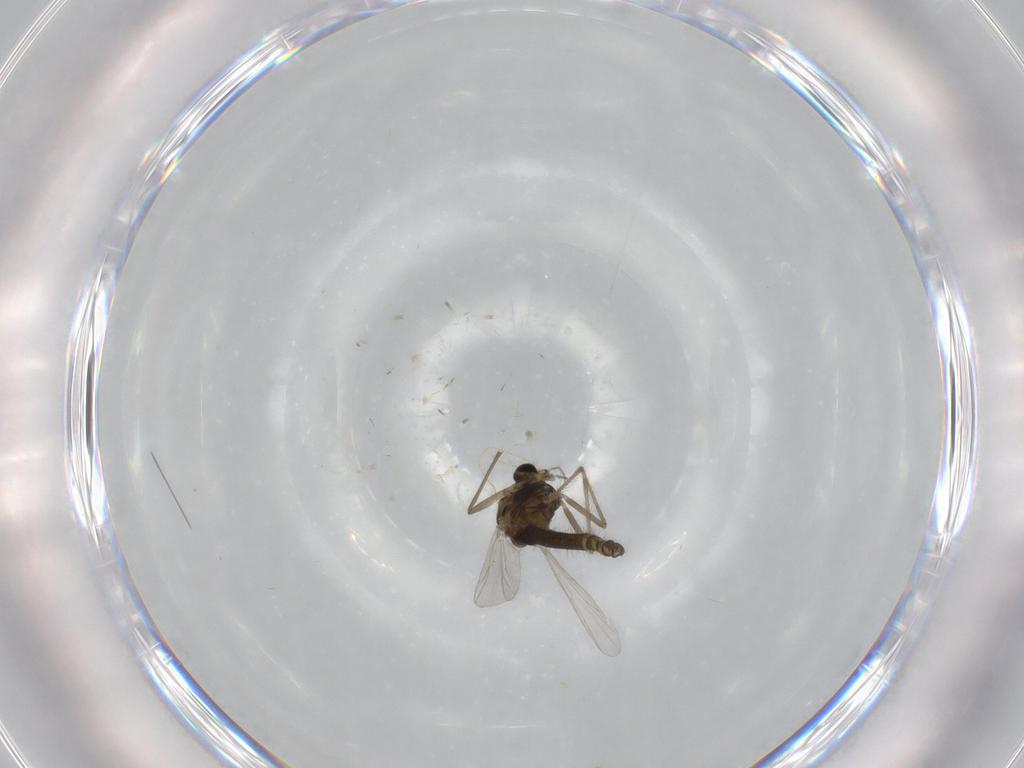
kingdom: Animalia
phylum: Arthropoda
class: Insecta
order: Diptera
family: Chironomidae
